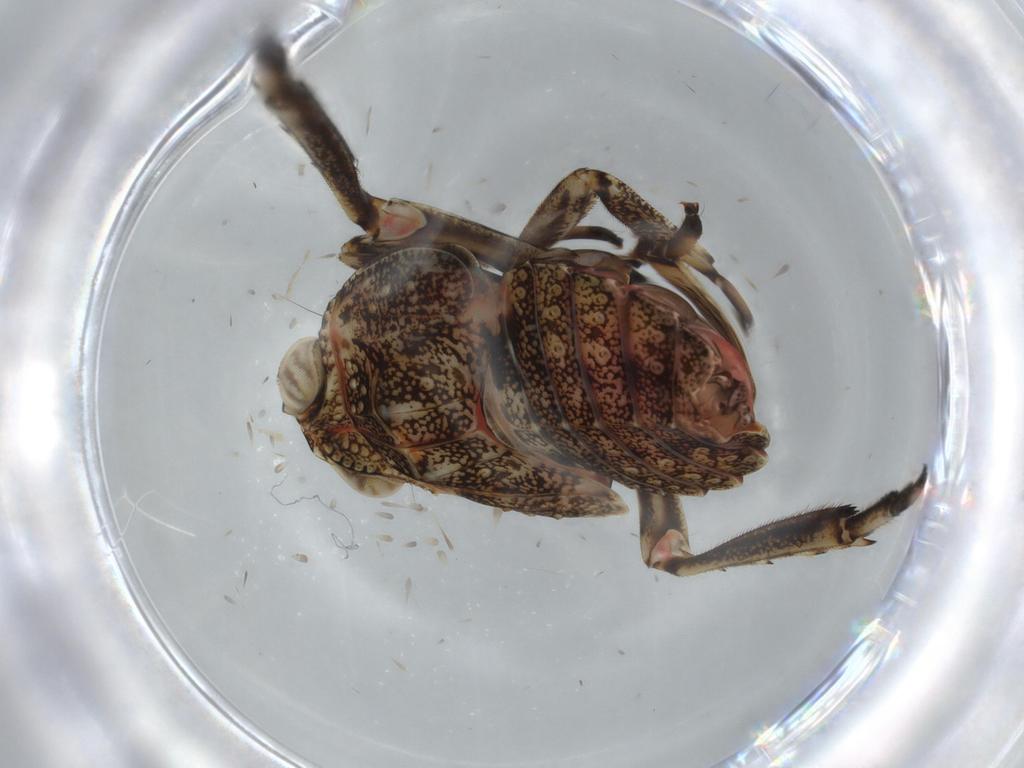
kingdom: Animalia
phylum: Arthropoda
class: Insecta
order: Hemiptera
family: Issidae
